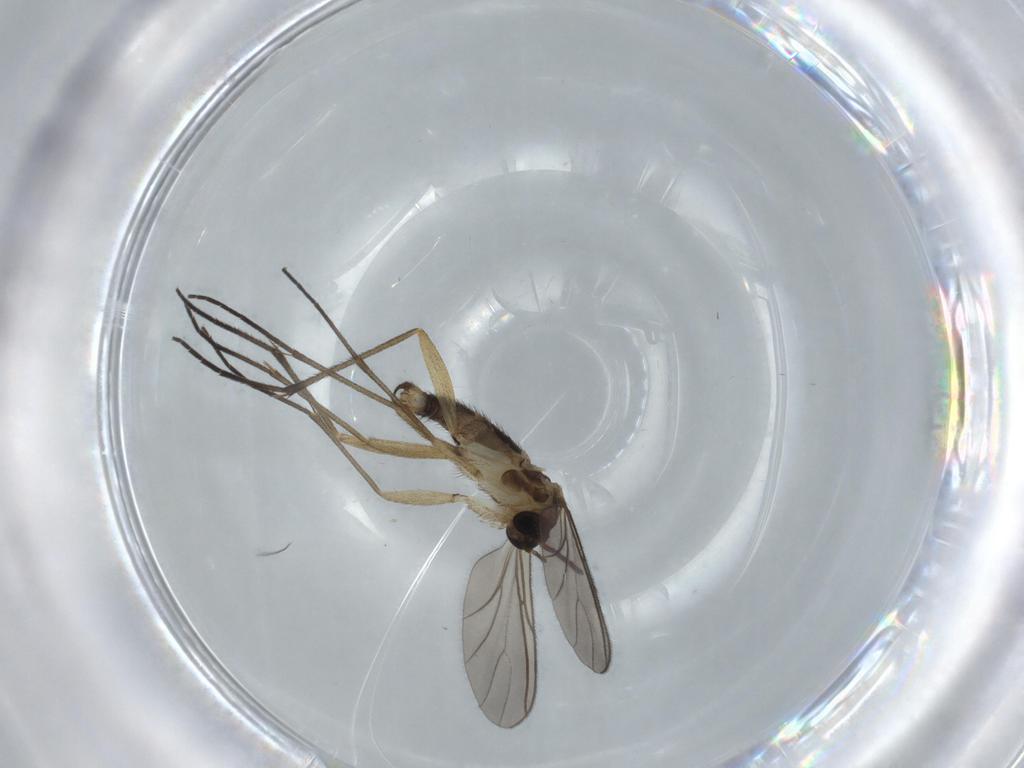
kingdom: Animalia
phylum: Arthropoda
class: Insecta
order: Diptera
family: Sciaridae
